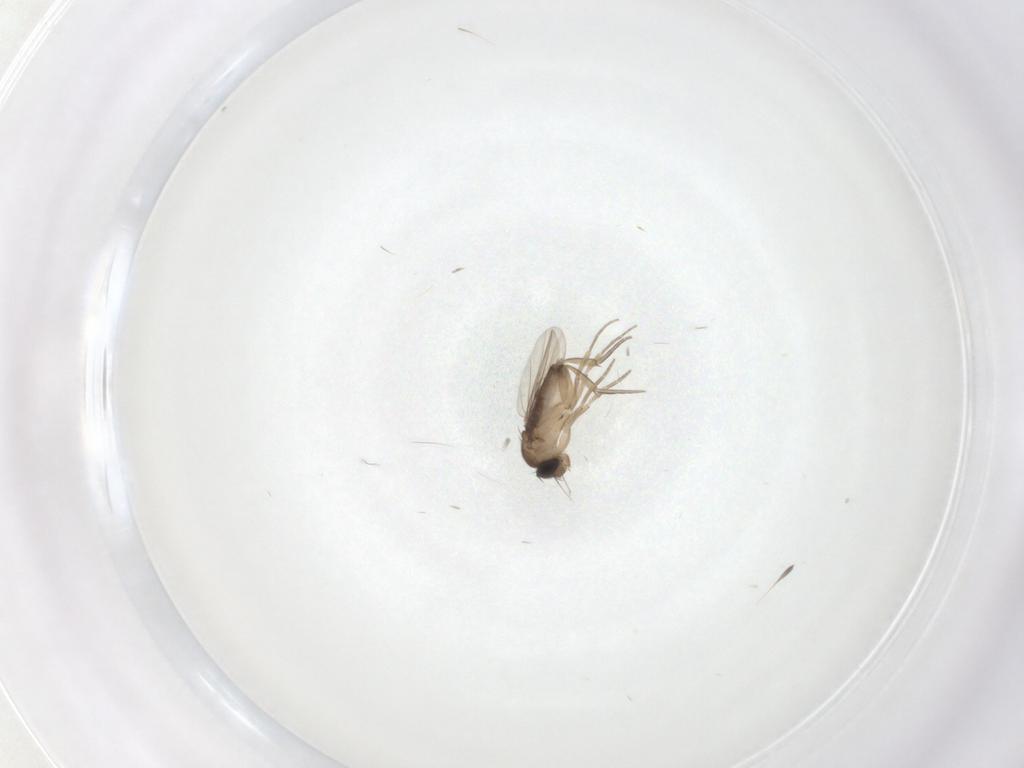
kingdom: Animalia
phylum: Arthropoda
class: Insecta
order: Diptera
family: Phoridae
